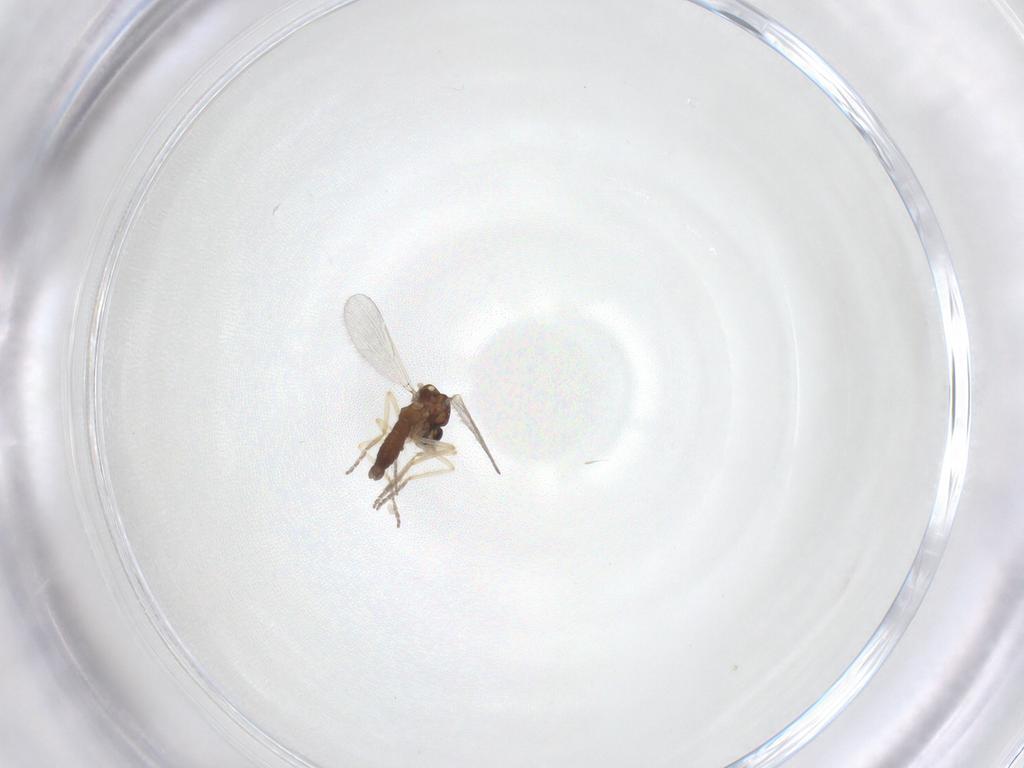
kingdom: Animalia
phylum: Arthropoda
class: Insecta
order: Diptera
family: Ceratopogonidae
